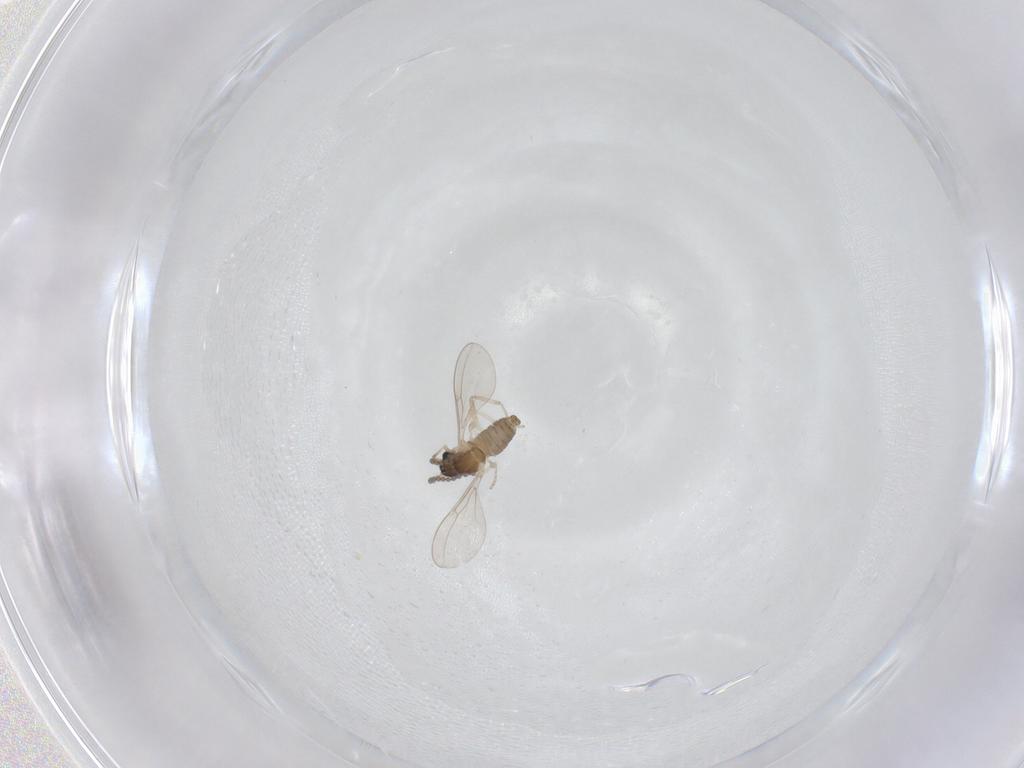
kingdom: Animalia
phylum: Arthropoda
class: Insecta
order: Diptera
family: Cecidomyiidae
